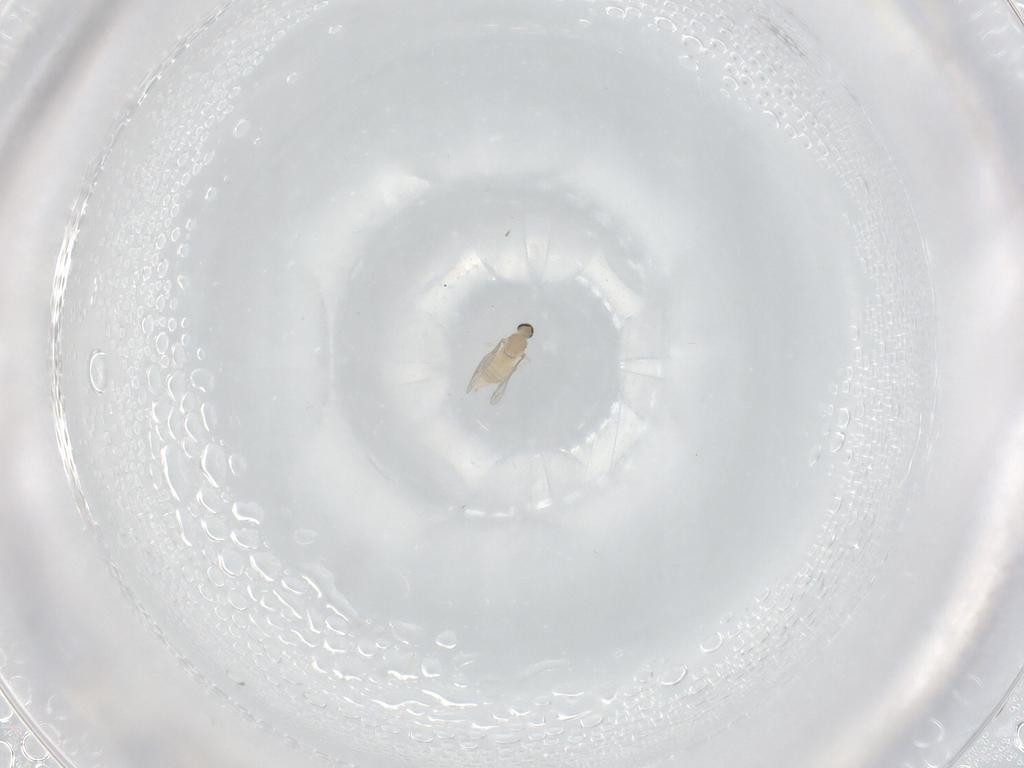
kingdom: Animalia
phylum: Arthropoda
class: Insecta
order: Diptera
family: Cecidomyiidae
